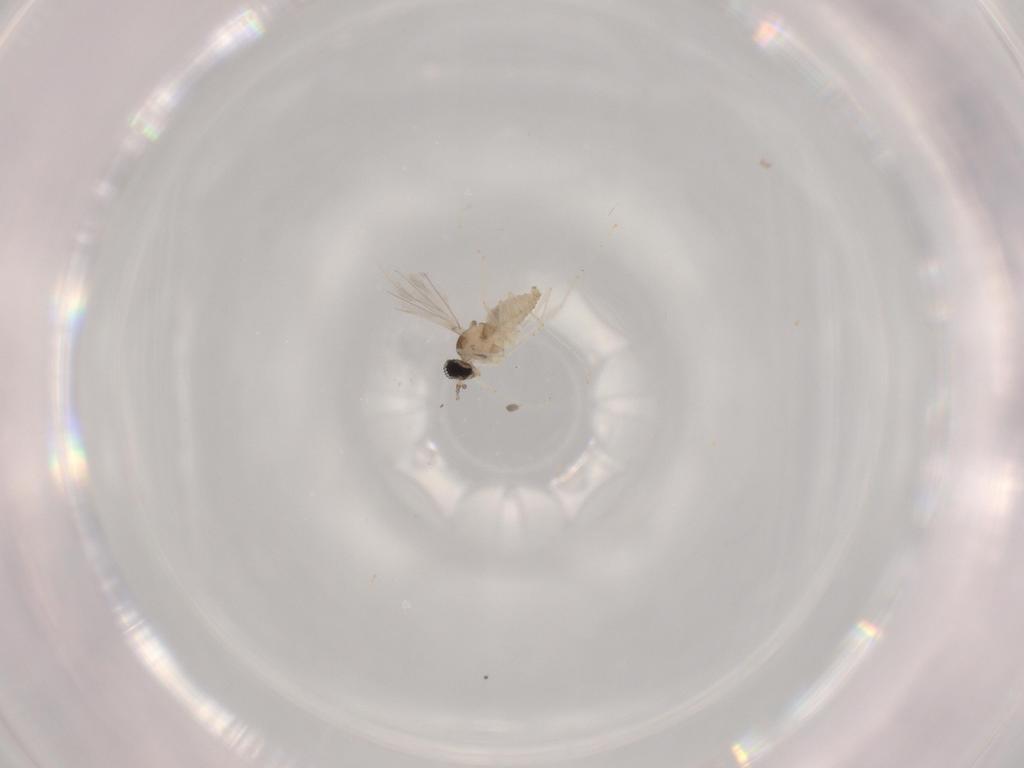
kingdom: Animalia
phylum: Arthropoda
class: Insecta
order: Diptera
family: Cecidomyiidae
